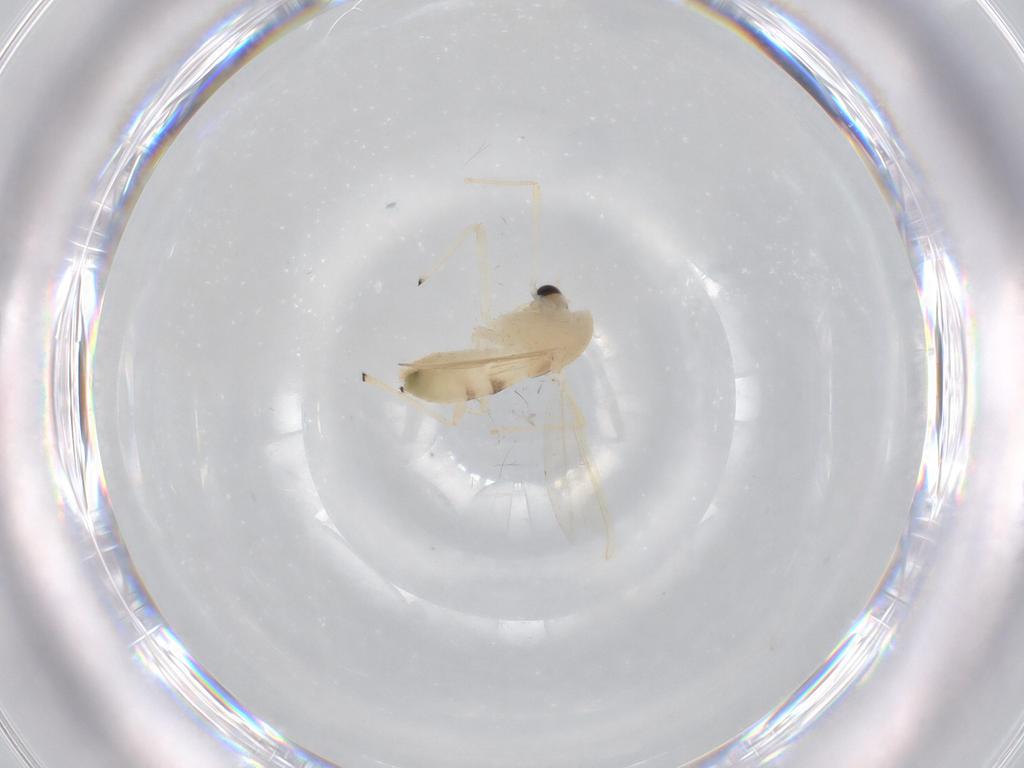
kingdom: Animalia
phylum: Arthropoda
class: Insecta
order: Diptera
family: Chironomidae
